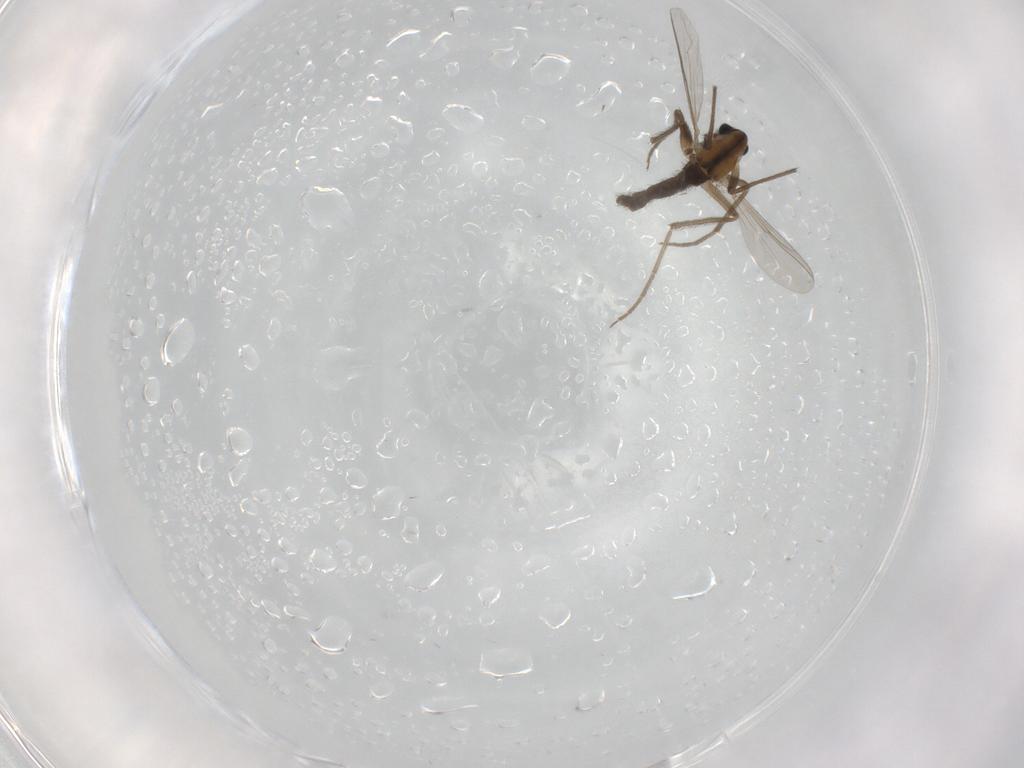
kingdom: Animalia
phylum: Arthropoda
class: Insecta
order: Diptera
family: Chironomidae
